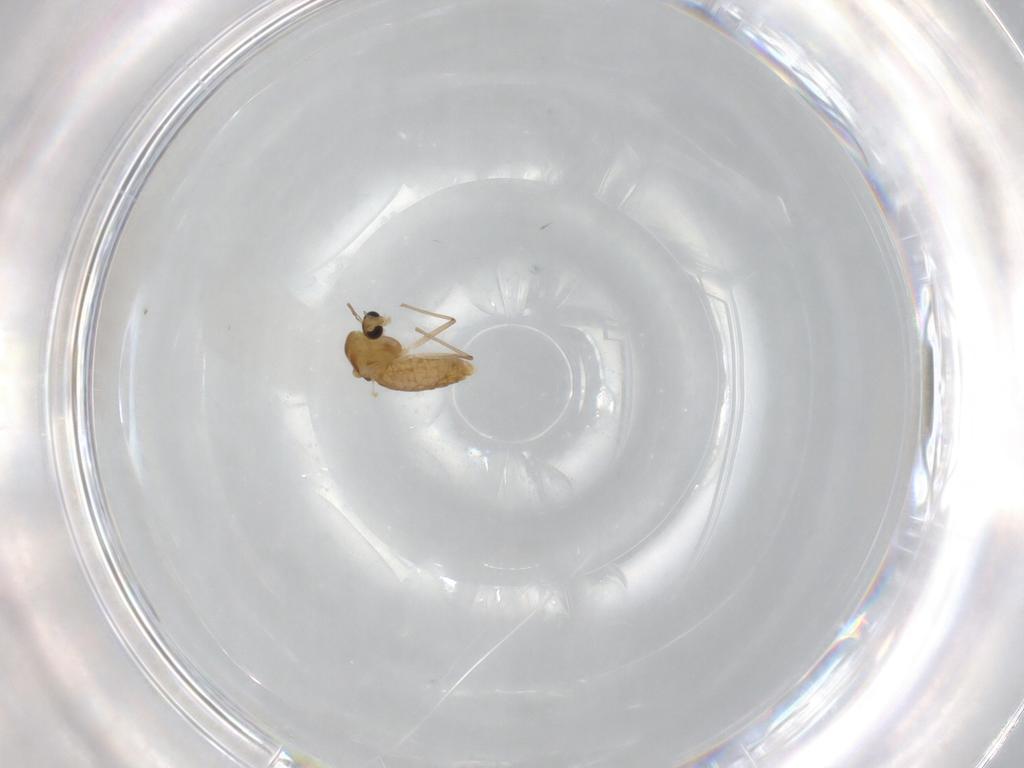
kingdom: Animalia
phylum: Arthropoda
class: Insecta
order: Diptera
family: Chironomidae
